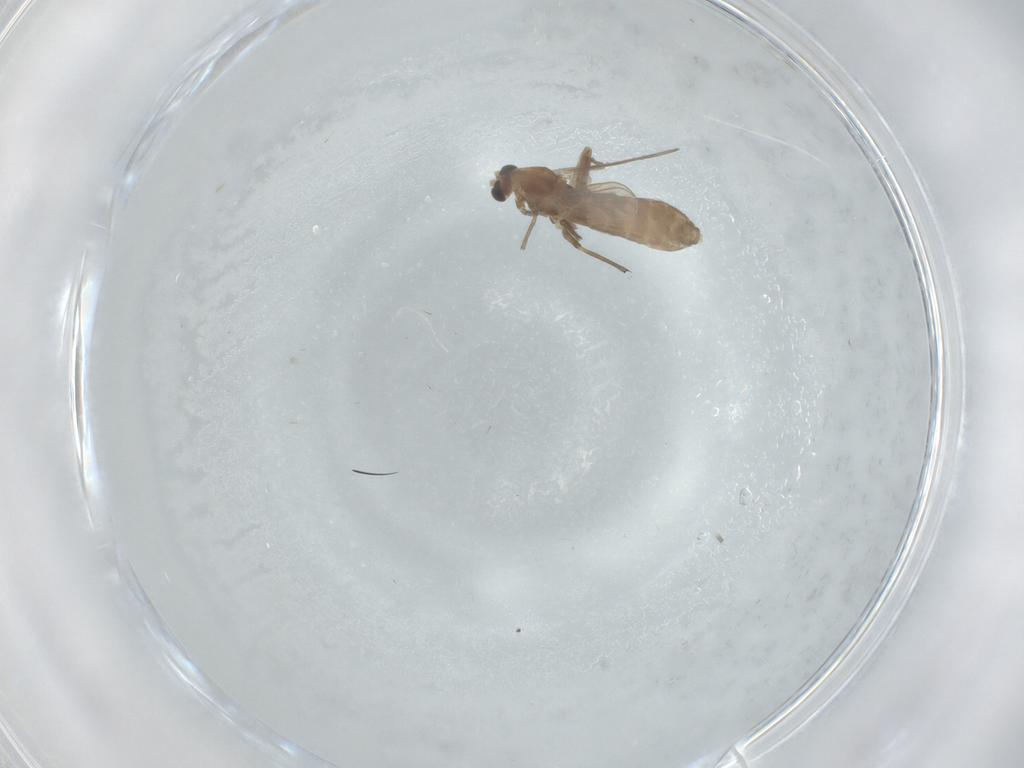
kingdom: Animalia
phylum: Arthropoda
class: Insecta
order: Diptera
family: Chironomidae
